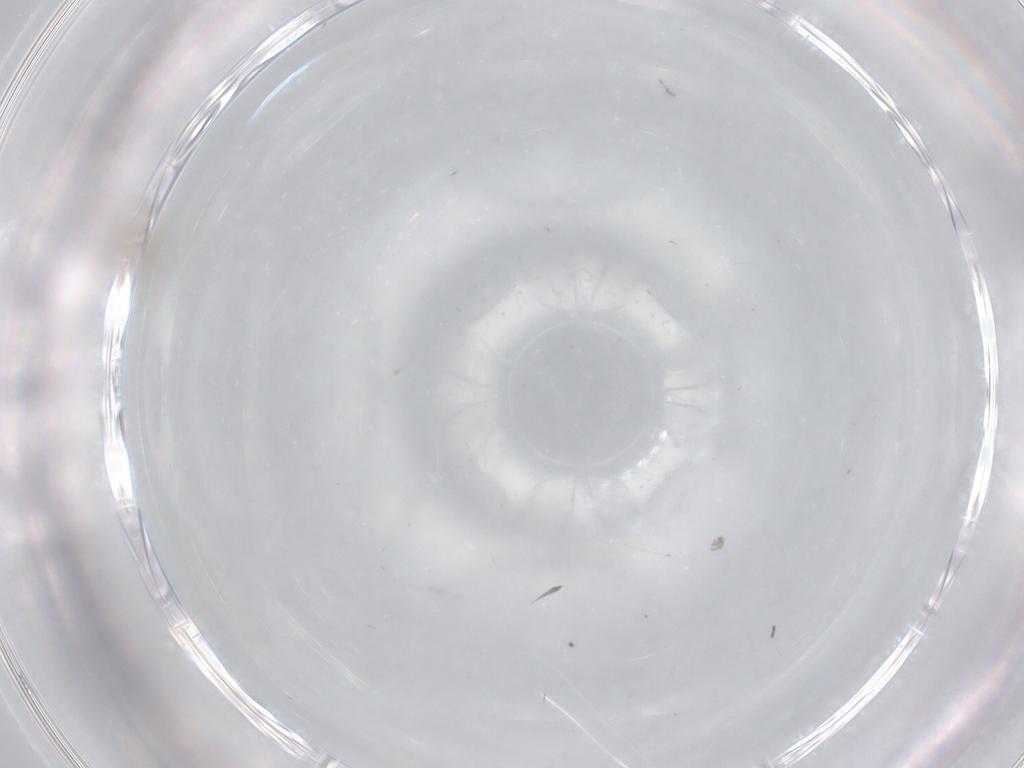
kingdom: Animalia
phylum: Arthropoda
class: Insecta
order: Hymenoptera
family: Mymaridae
